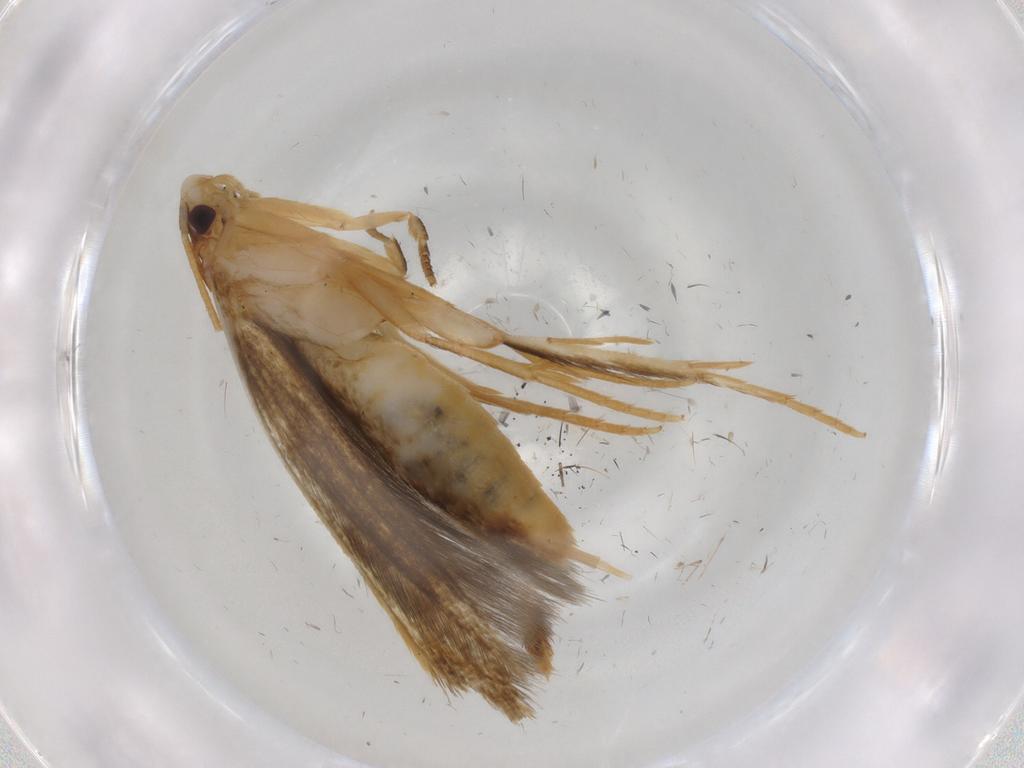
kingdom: Animalia
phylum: Arthropoda
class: Insecta
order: Lepidoptera
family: Tineidae
